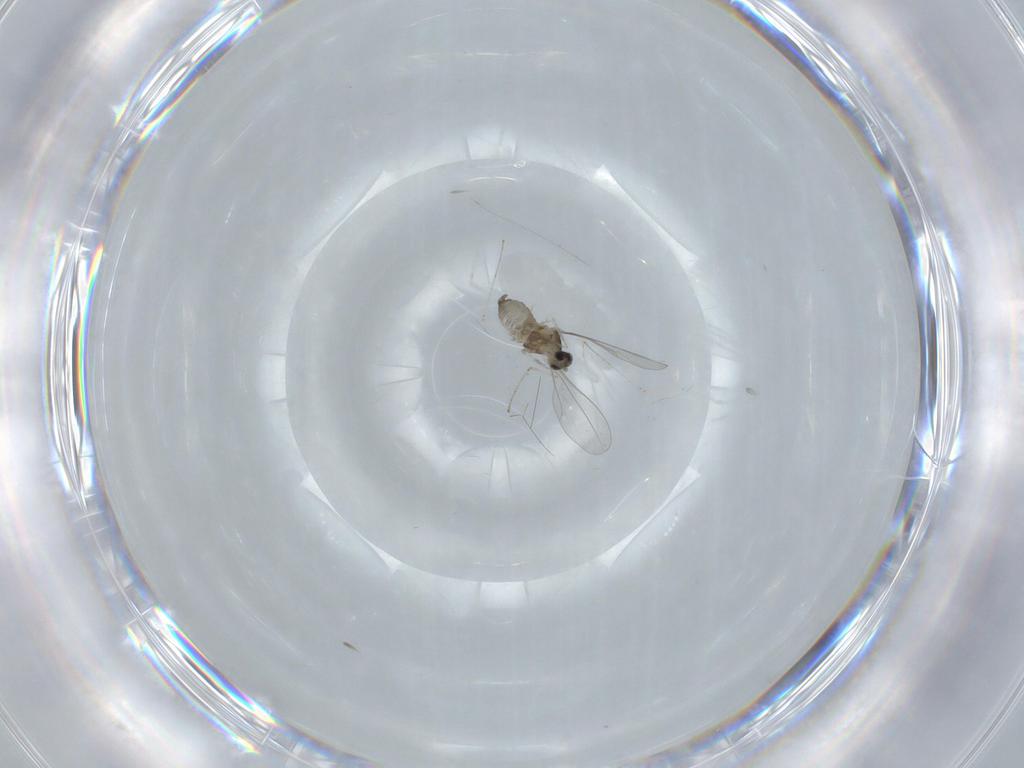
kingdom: Animalia
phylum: Arthropoda
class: Insecta
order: Diptera
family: Cecidomyiidae
